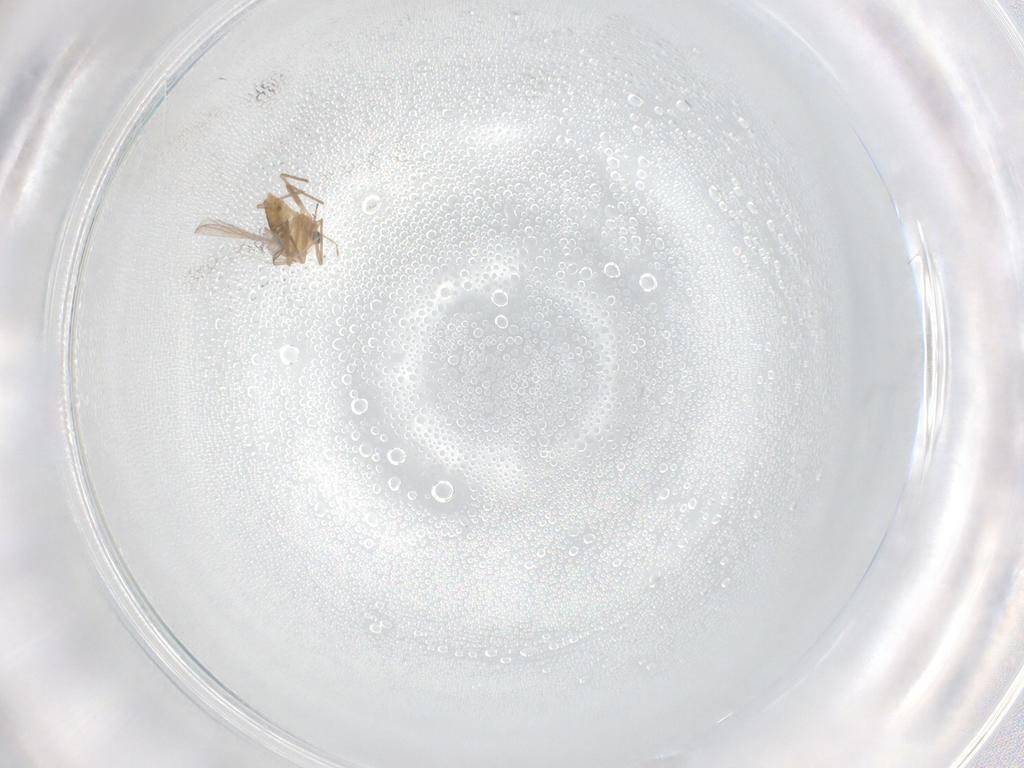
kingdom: Animalia
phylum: Arthropoda
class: Insecta
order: Diptera
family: Chironomidae
